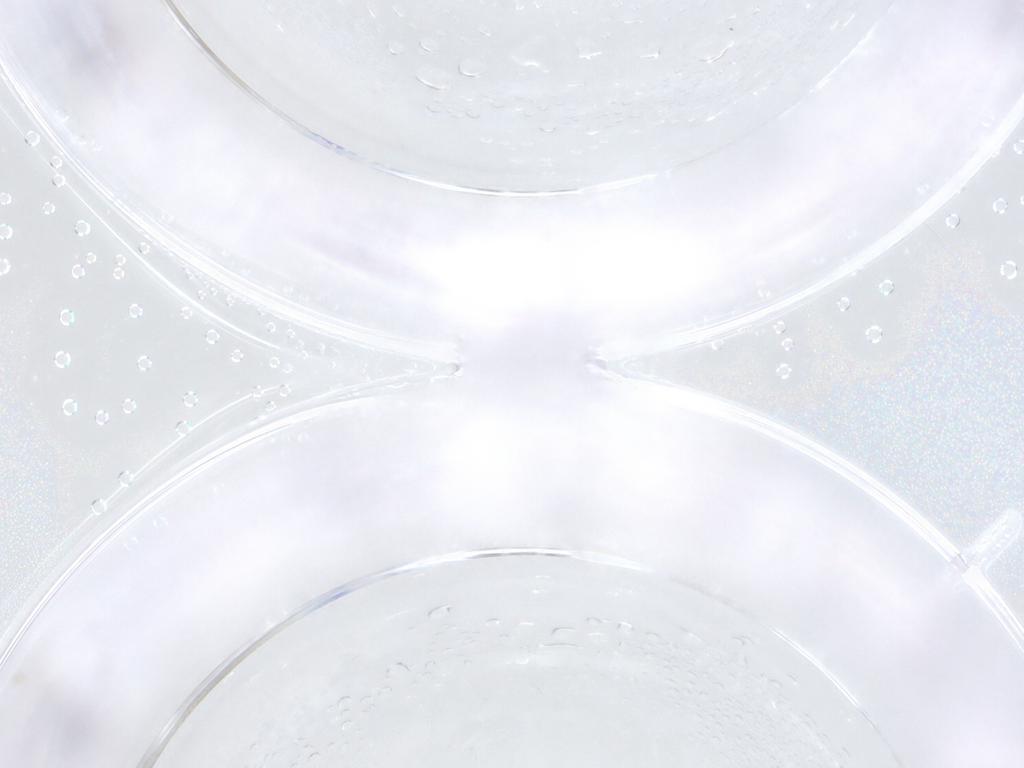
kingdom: Animalia
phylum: Arthropoda
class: Insecta
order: Diptera
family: Psychodidae
